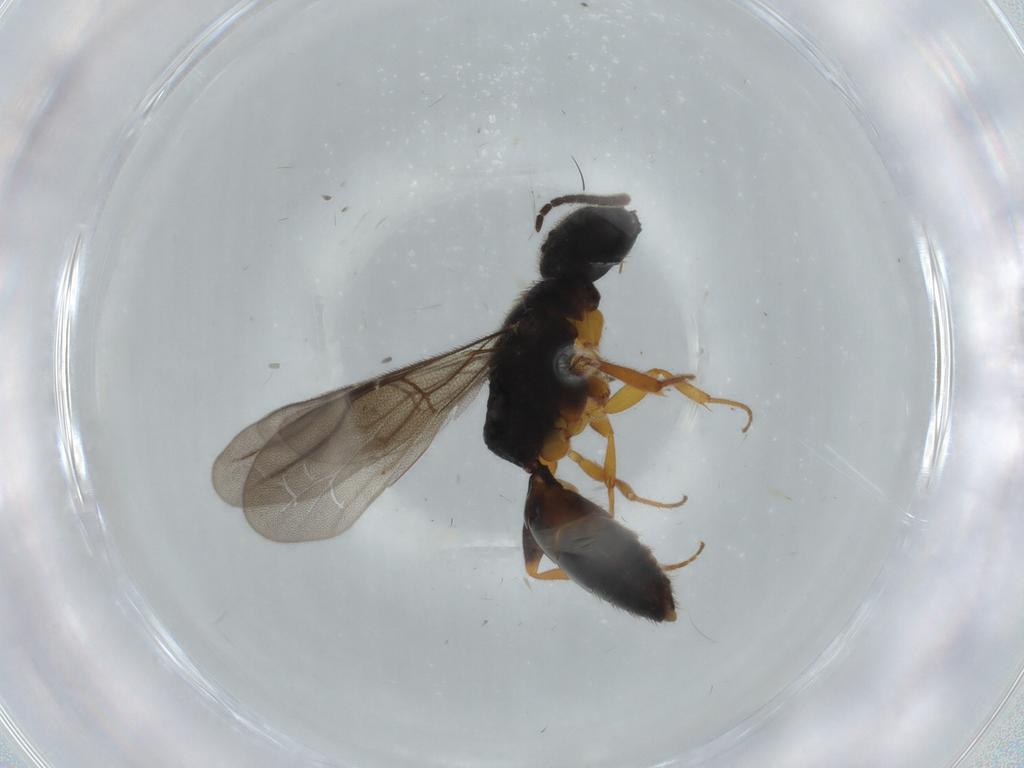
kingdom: Animalia
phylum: Arthropoda
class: Insecta
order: Hymenoptera
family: Bethylidae
